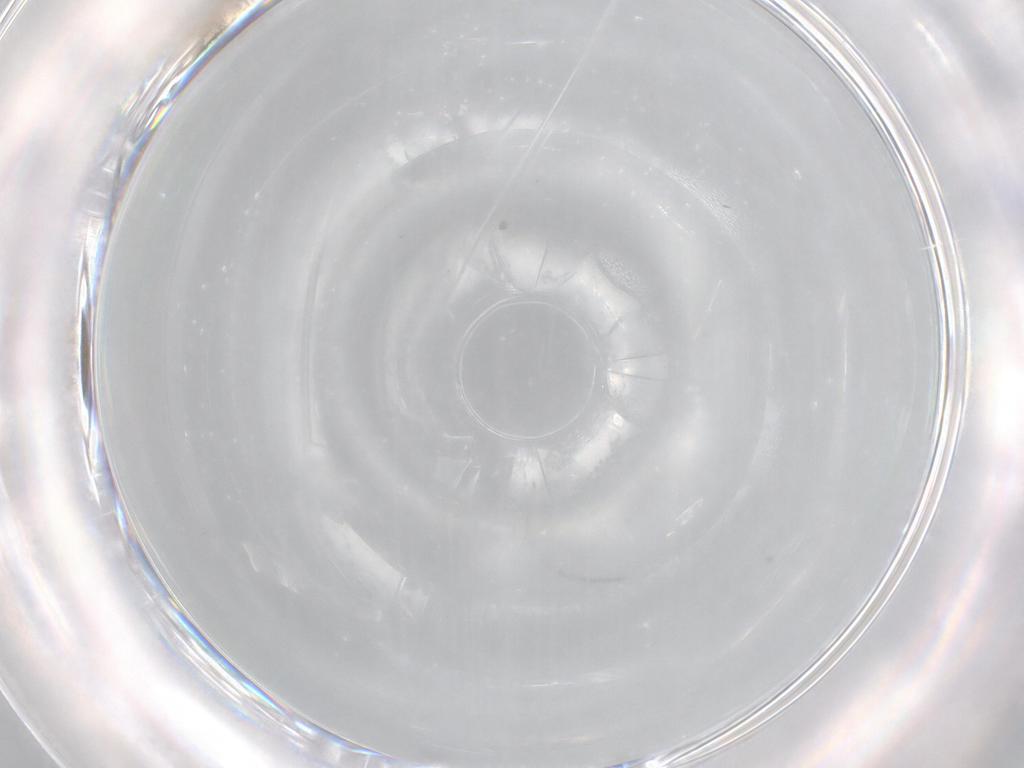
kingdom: Animalia
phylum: Arthropoda
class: Insecta
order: Diptera
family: Cecidomyiidae
